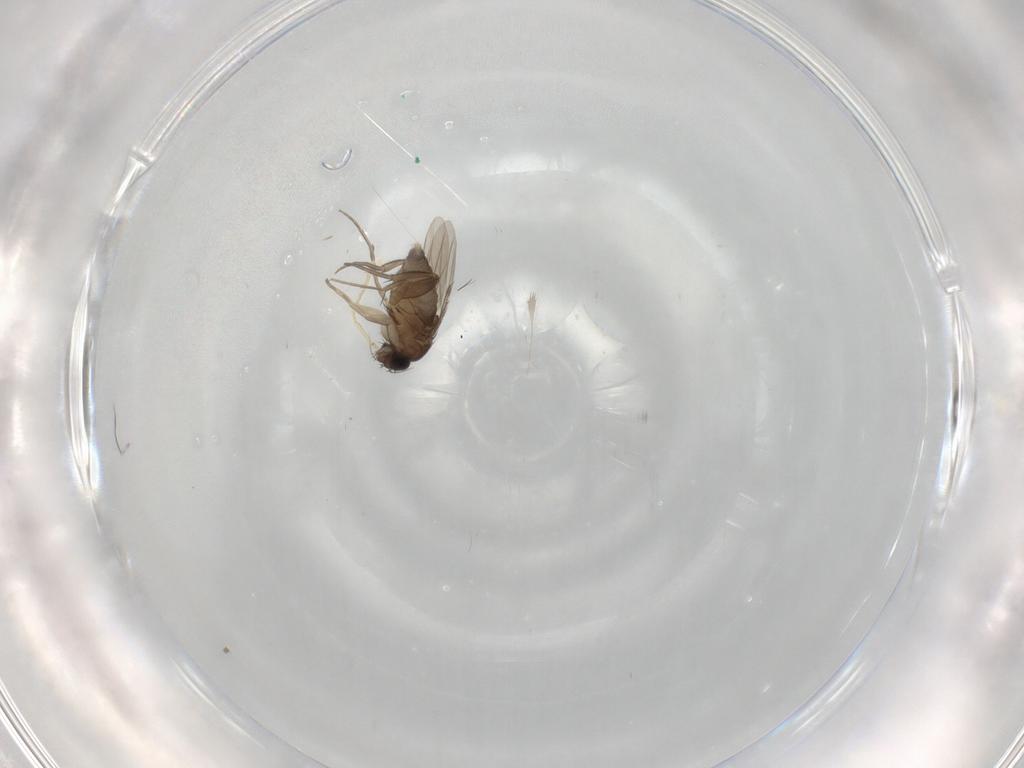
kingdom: Animalia
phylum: Arthropoda
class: Insecta
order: Diptera
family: Phoridae
